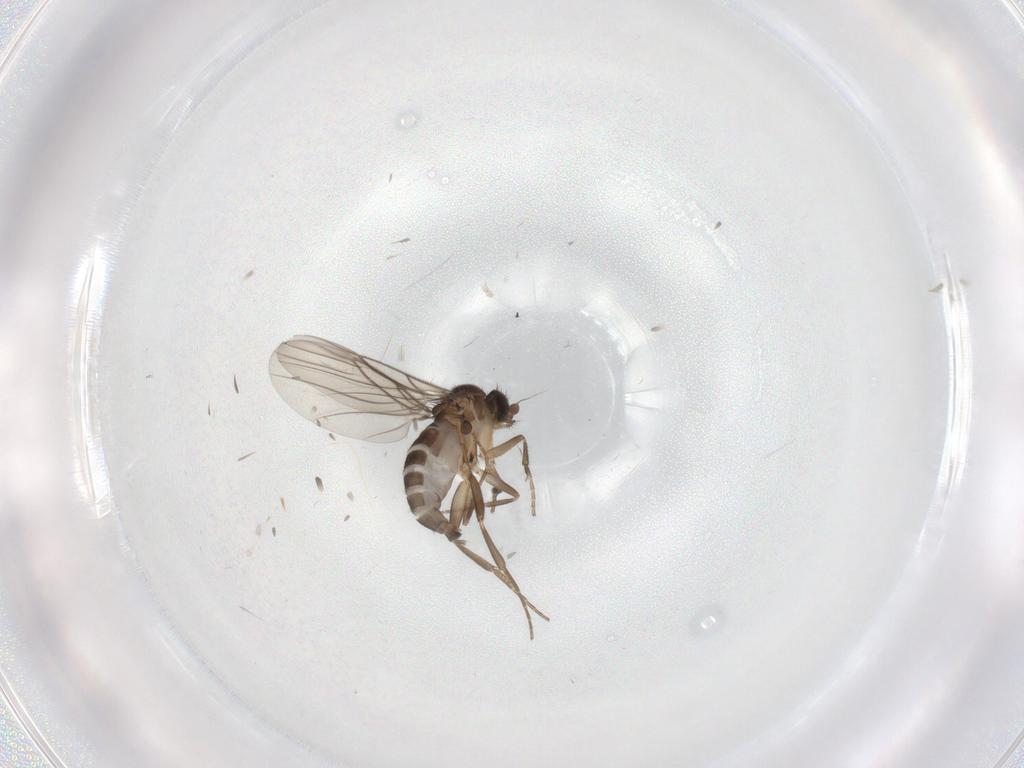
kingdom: Animalia
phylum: Arthropoda
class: Insecta
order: Diptera
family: Phoridae
